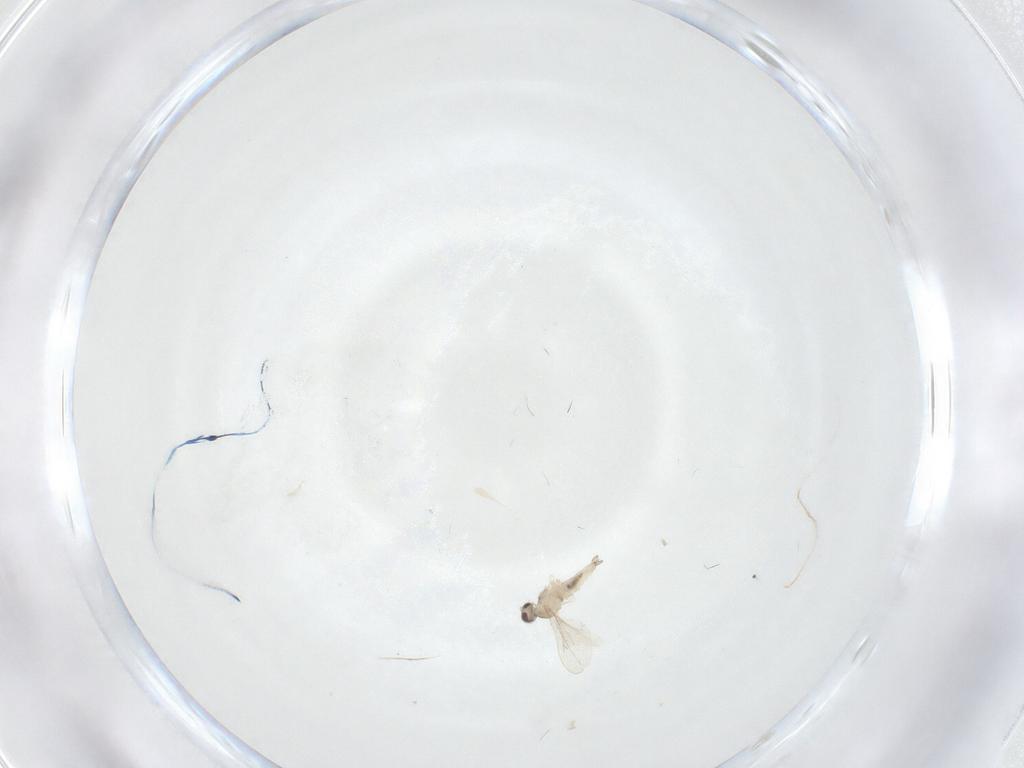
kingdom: Animalia
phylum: Arthropoda
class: Insecta
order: Diptera
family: Cecidomyiidae
